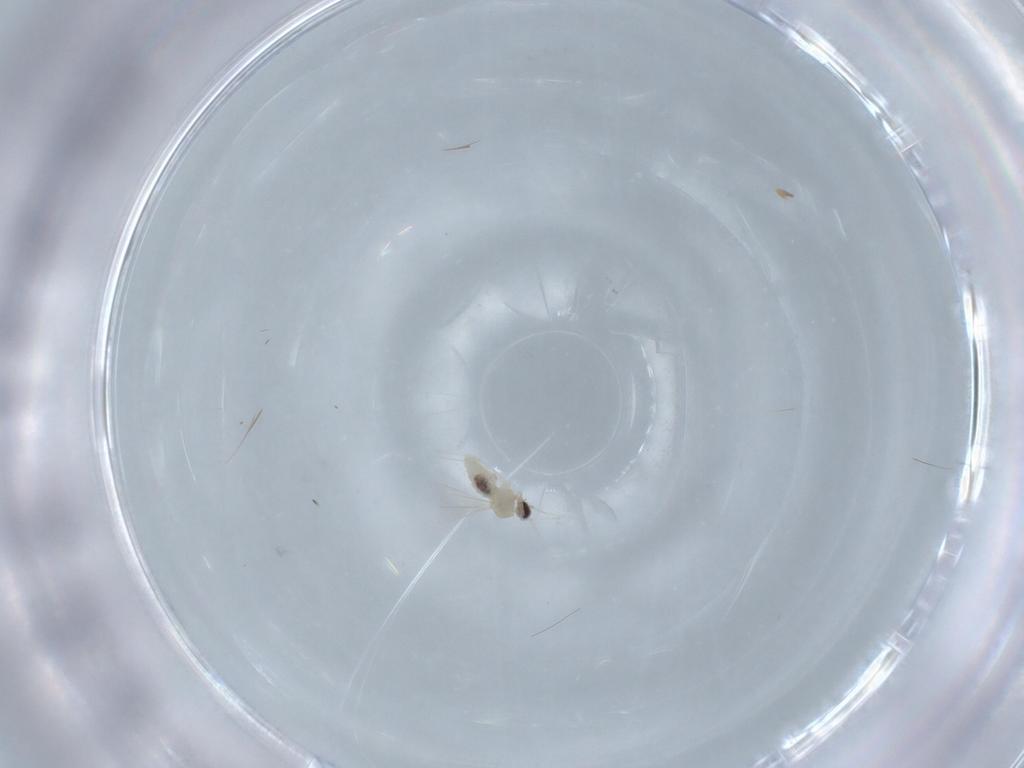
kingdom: Animalia
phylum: Arthropoda
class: Insecta
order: Diptera
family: Cecidomyiidae
